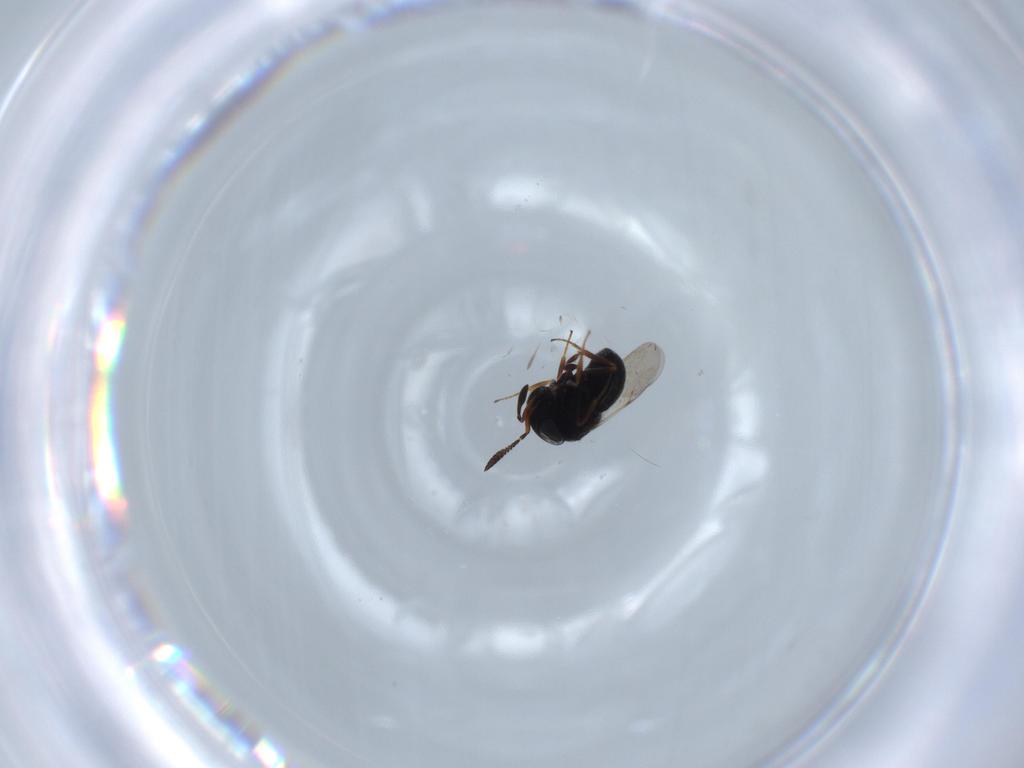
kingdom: Animalia
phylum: Arthropoda
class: Insecta
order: Hymenoptera
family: Scelionidae
